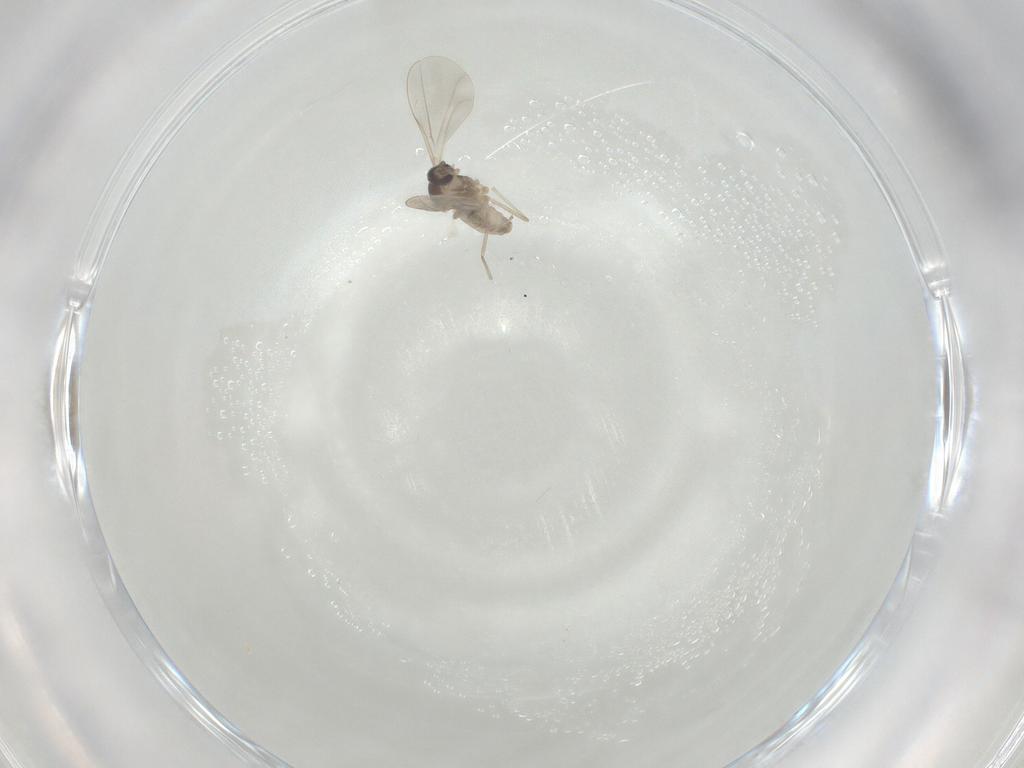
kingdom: Animalia
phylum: Arthropoda
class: Insecta
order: Diptera
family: Cecidomyiidae
